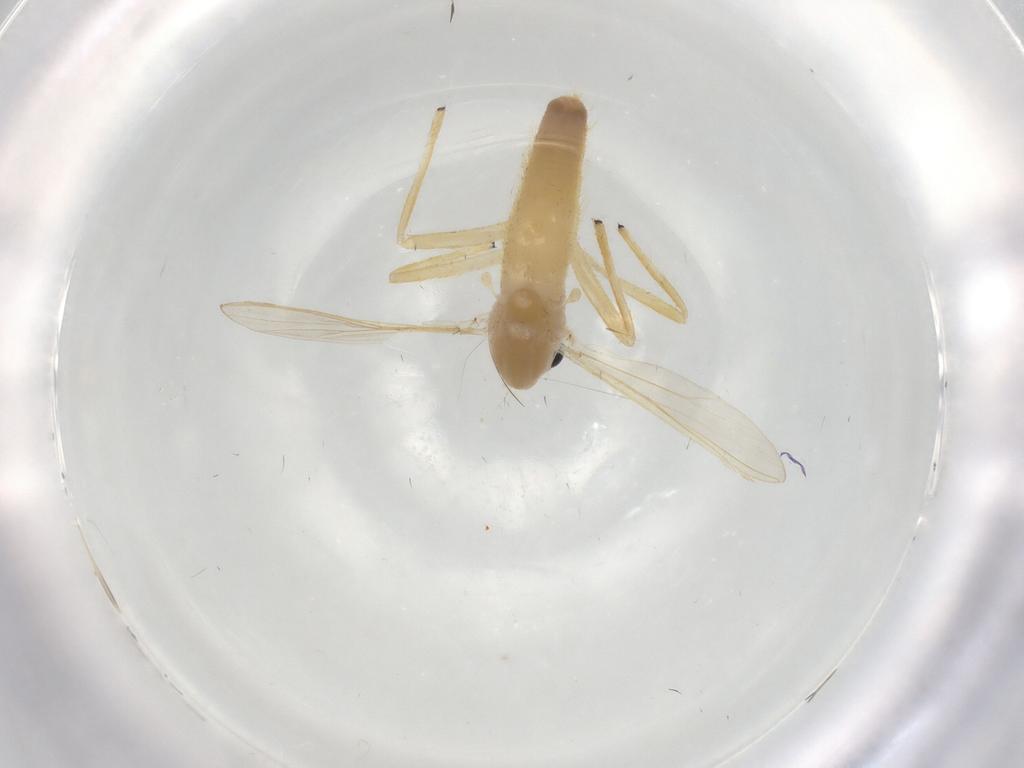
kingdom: Animalia
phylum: Arthropoda
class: Insecta
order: Diptera
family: Chironomidae
